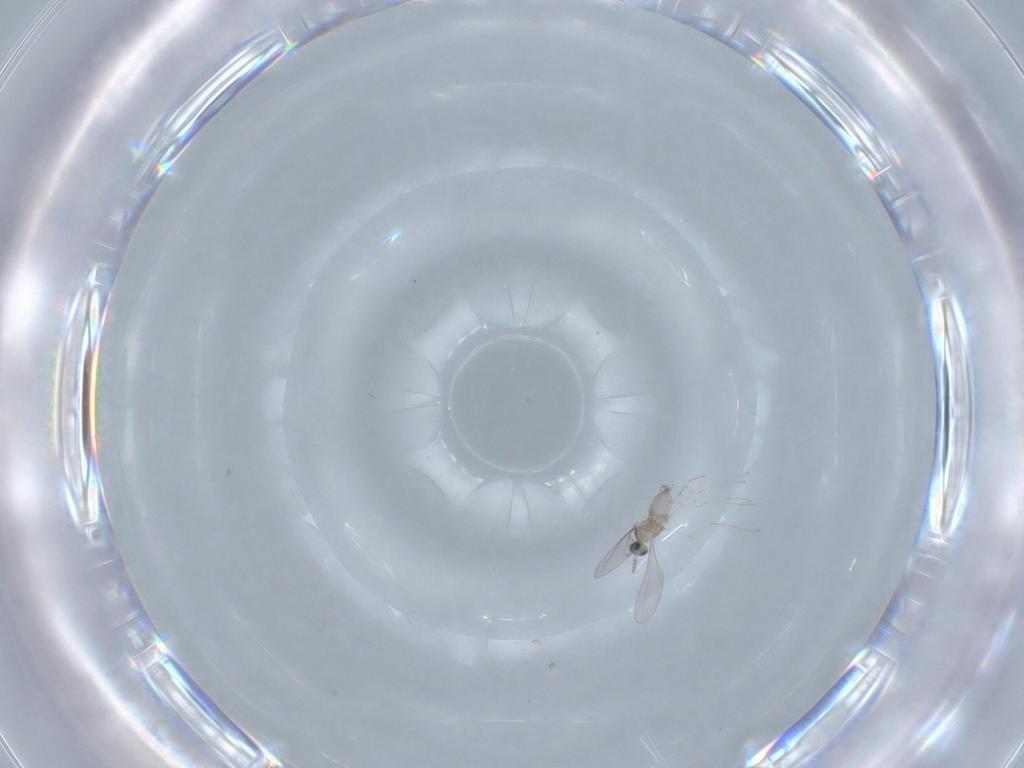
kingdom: Animalia
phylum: Arthropoda
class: Insecta
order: Diptera
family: Cecidomyiidae
